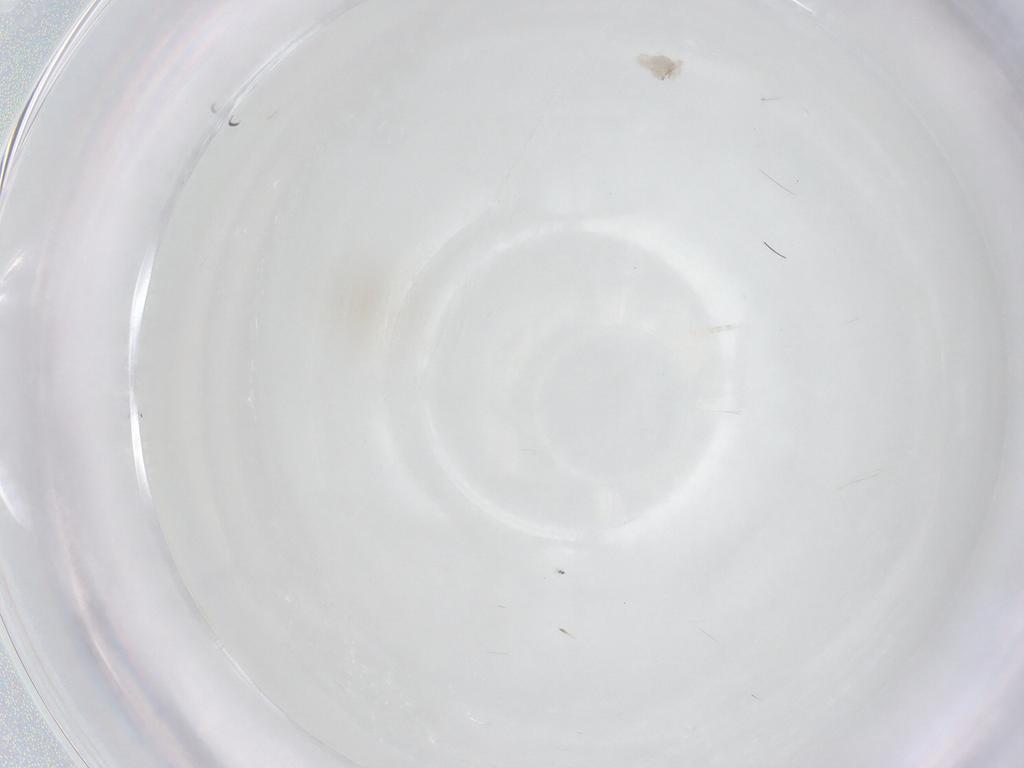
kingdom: Animalia
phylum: Arthropoda
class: Arachnida
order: Trombidiformes
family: Anystidae
